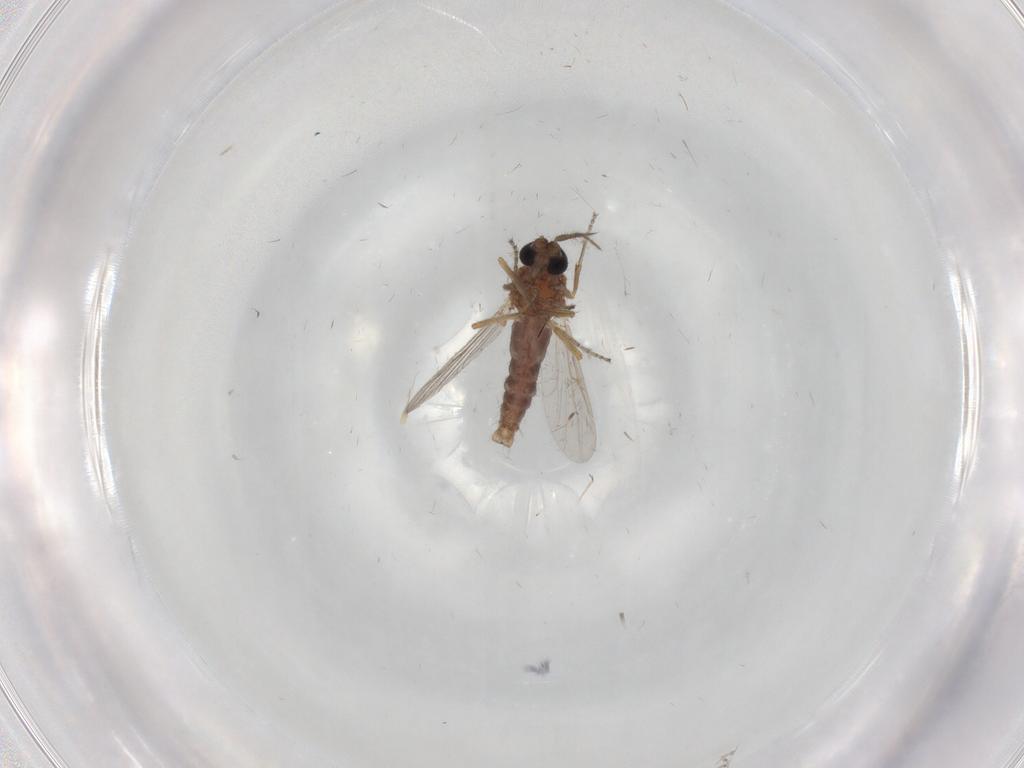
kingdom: Animalia
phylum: Arthropoda
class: Insecta
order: Diptera
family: Ceratopogonidae
